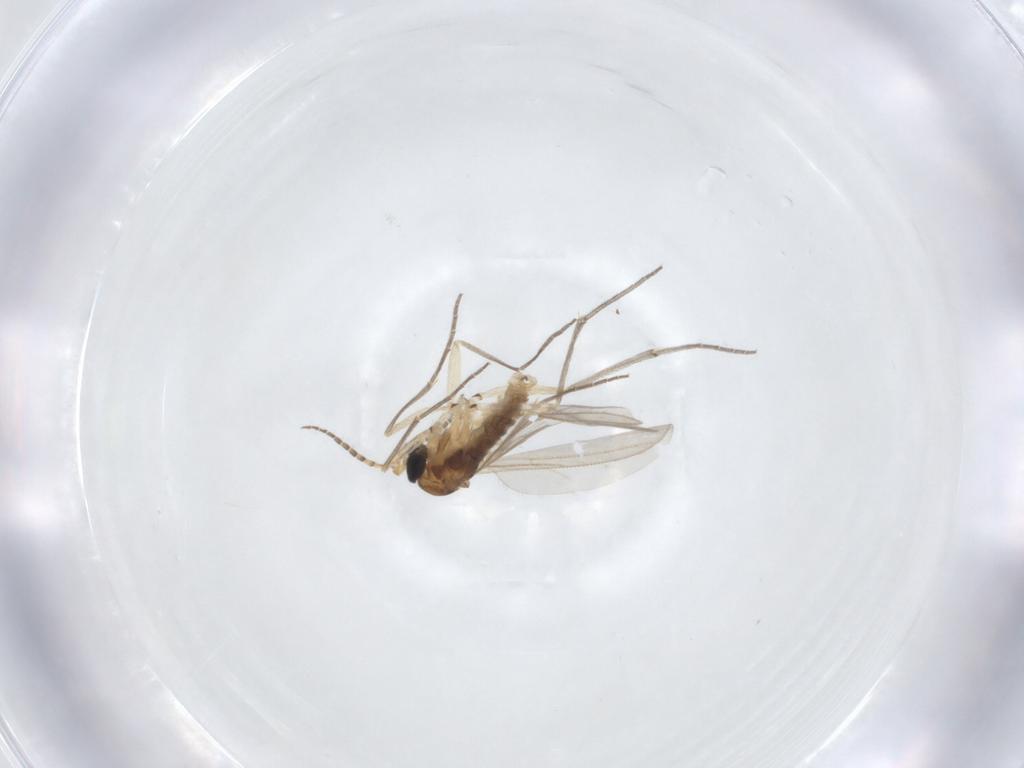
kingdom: Animalia
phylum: Arthropoda
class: Insecta
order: Diptera
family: Sciaridae
